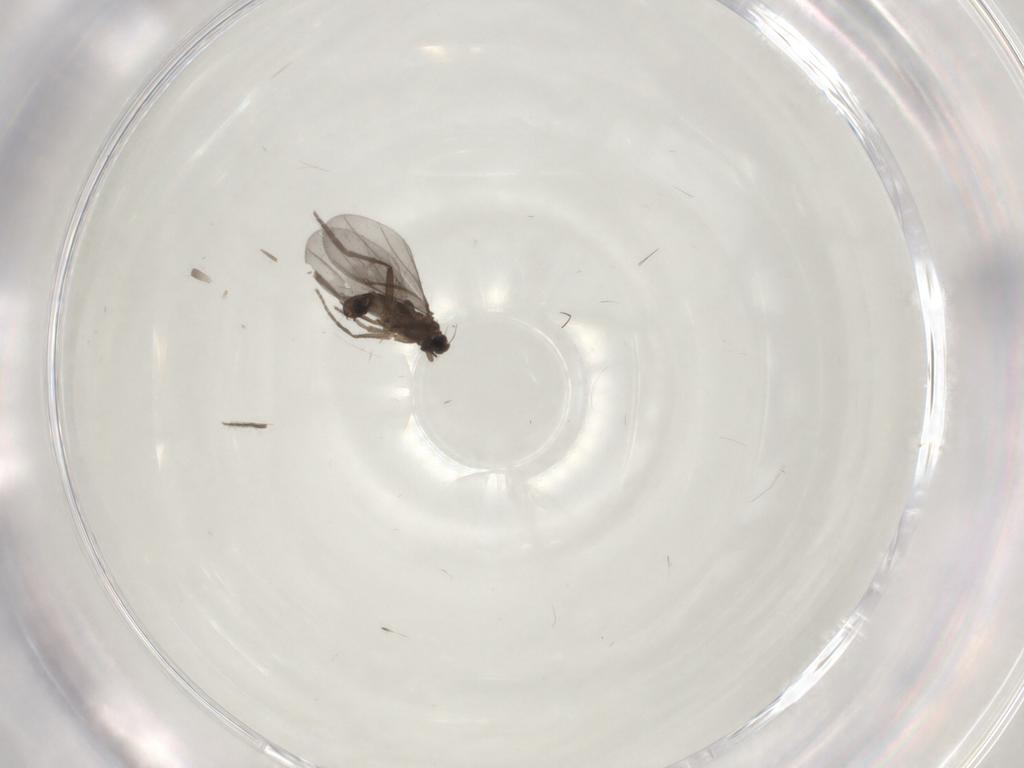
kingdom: Animalia
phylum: Arthropoda
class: Insecta
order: Diptera
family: Phoridae
